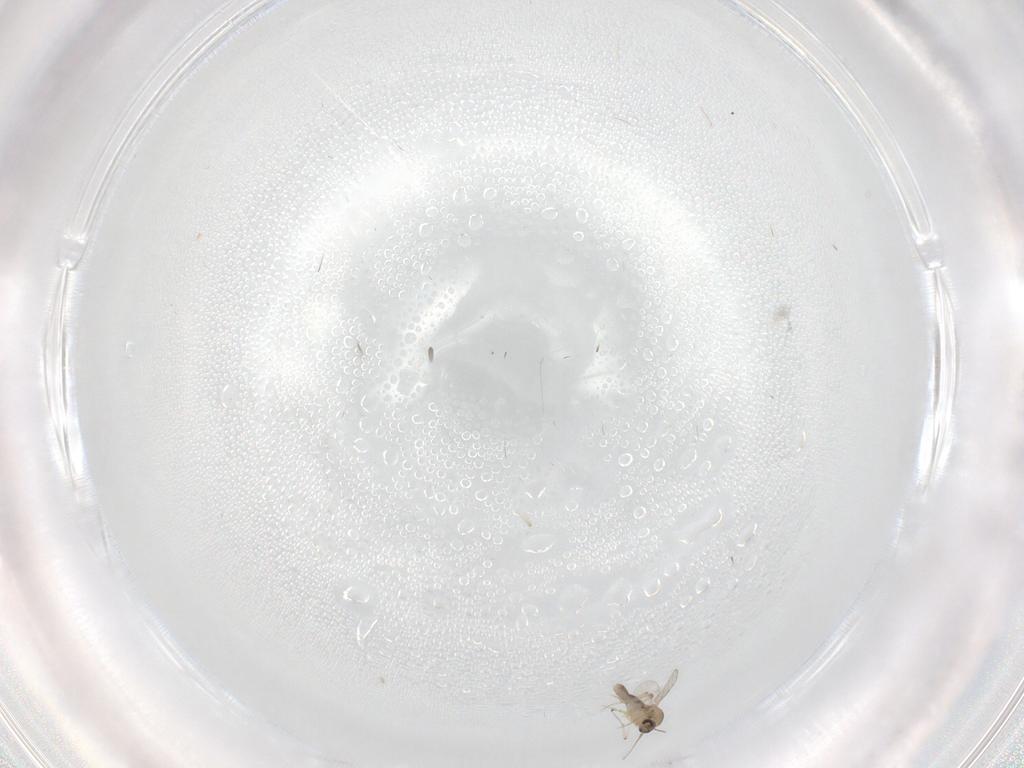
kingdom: Animalia
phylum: Arthropoda
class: Insecta
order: Diptera
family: Ceratopogonidae
